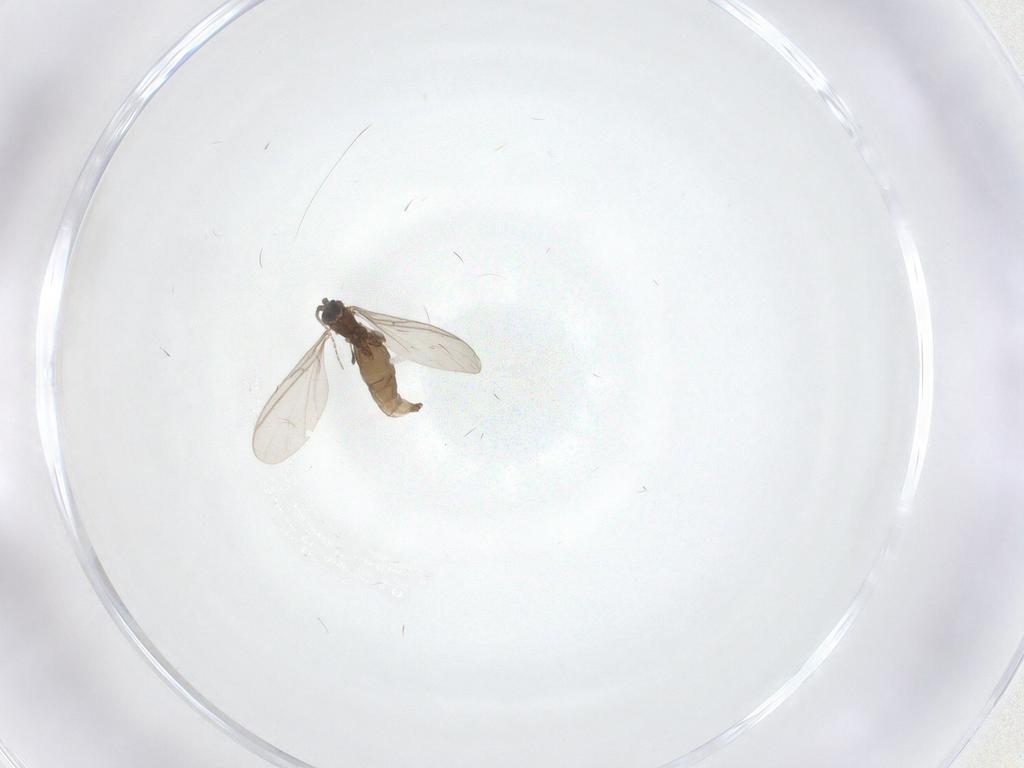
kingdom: Animalia
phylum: Arthropoda
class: Insecta
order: Diptera
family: Sciaridae
